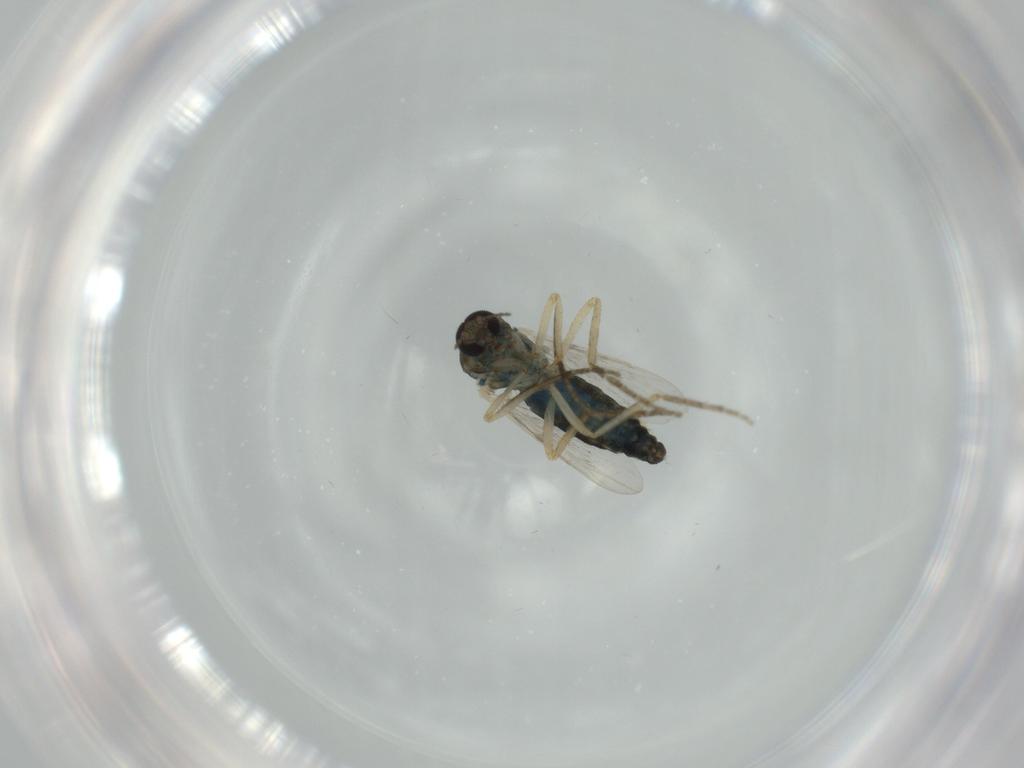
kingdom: Animalia
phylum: Arthropoda
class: Insecta
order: Diptera
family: Ceratopogonidae
